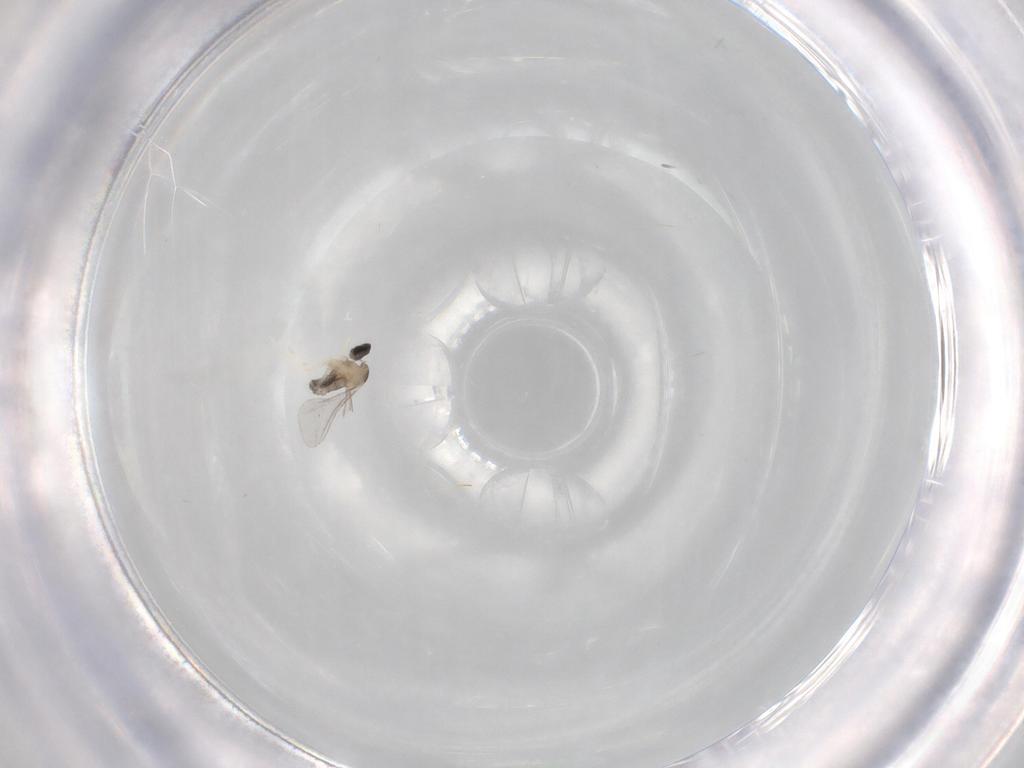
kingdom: Animalia
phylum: Arthropoda
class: Insecta
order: Diptera
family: Cecidomyiidae
